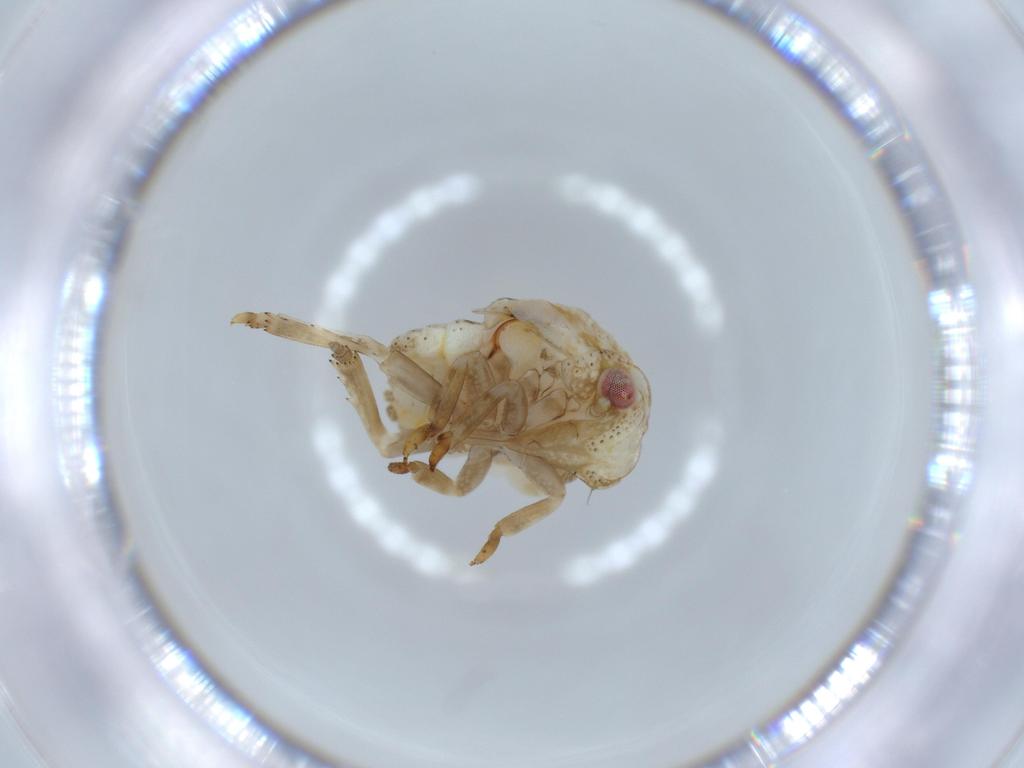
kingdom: Animalia
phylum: Arthropoda
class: Insecta
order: Hemiptera
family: Acanaloniidae
